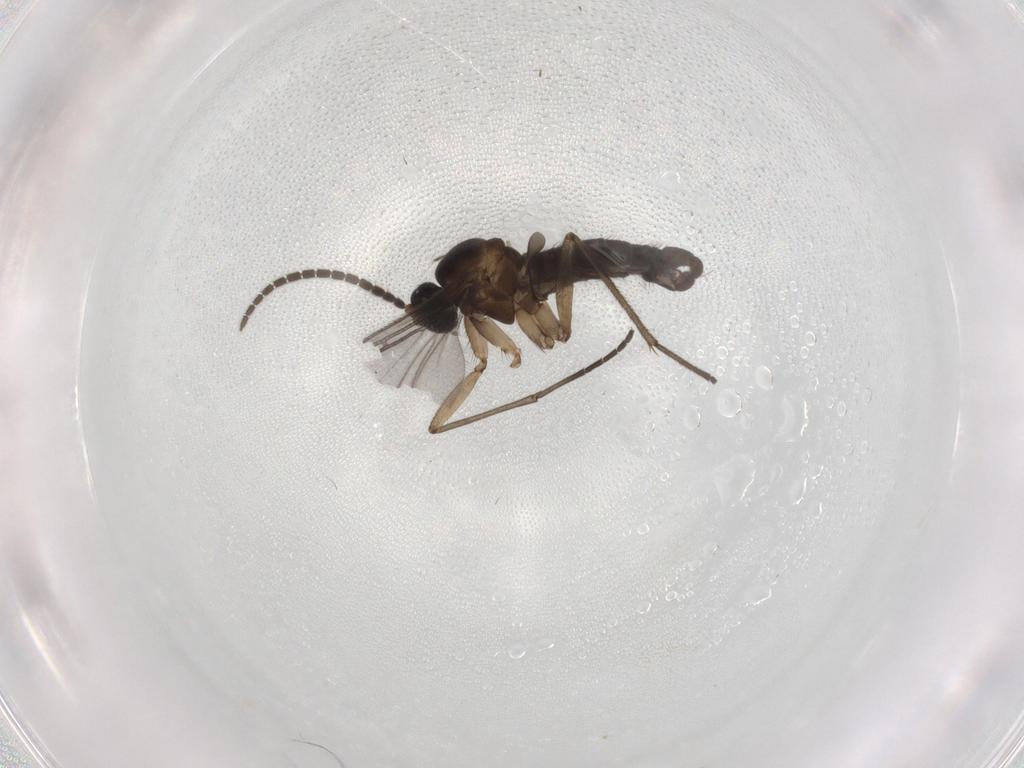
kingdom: Animalia
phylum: Arthropoda
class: Insecta
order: Diptera
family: Sciaridae
